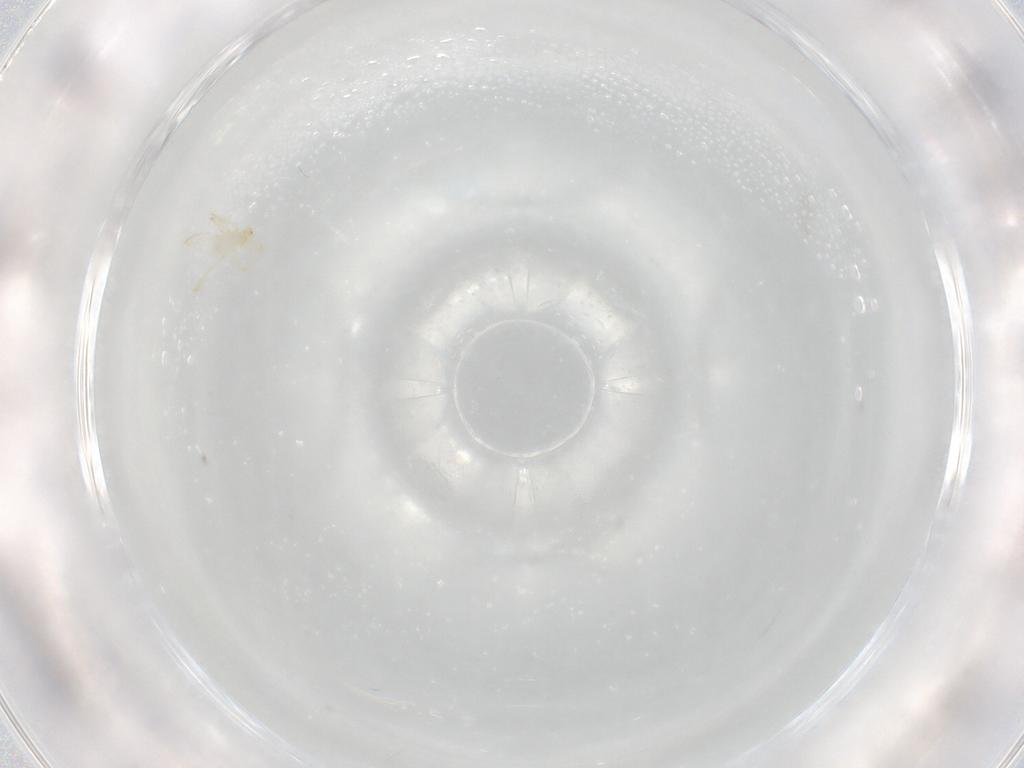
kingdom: Animalia
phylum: Arthropoda
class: Arachnida
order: Trombidiformes
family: Erythraeidae
